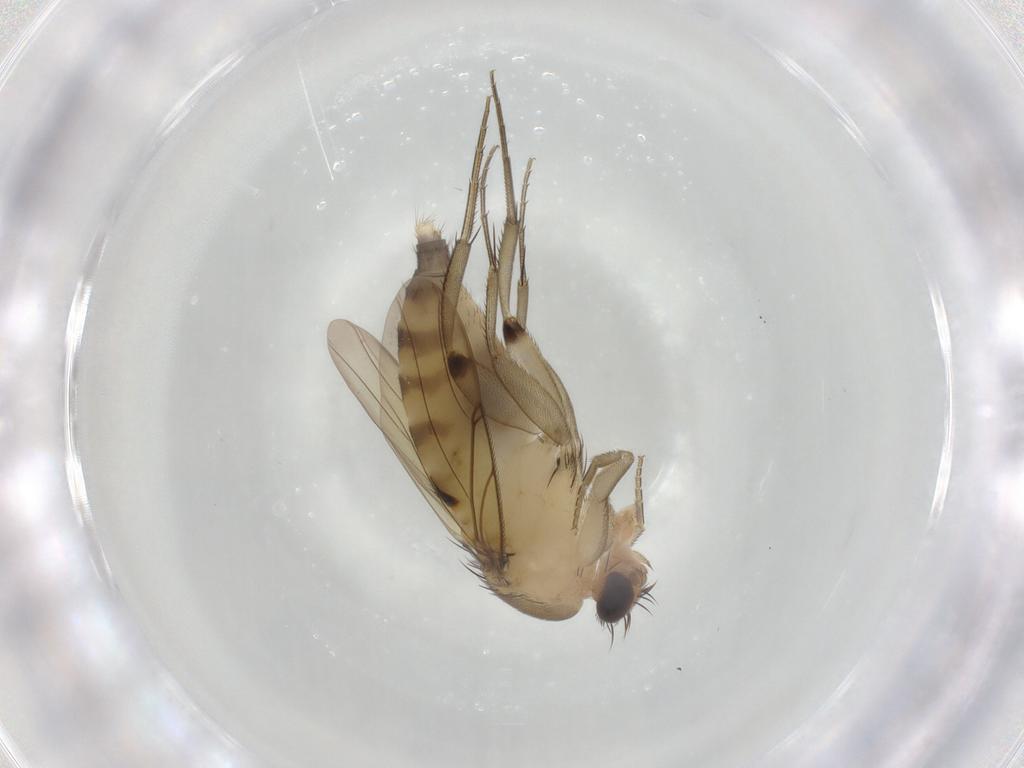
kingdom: Animalia
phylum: Arthropoda
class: Insecta
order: Diptera
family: Phoridae
